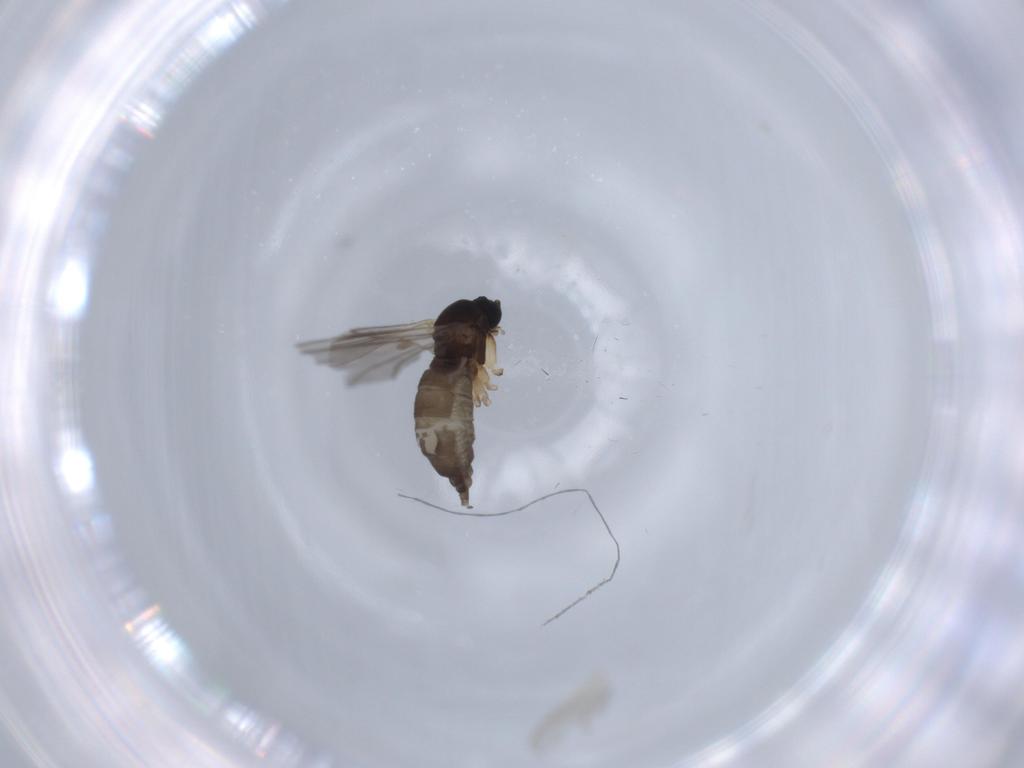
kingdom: Animalia
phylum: Arthropoda
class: Insecta
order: Diptera
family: Sciaridae
